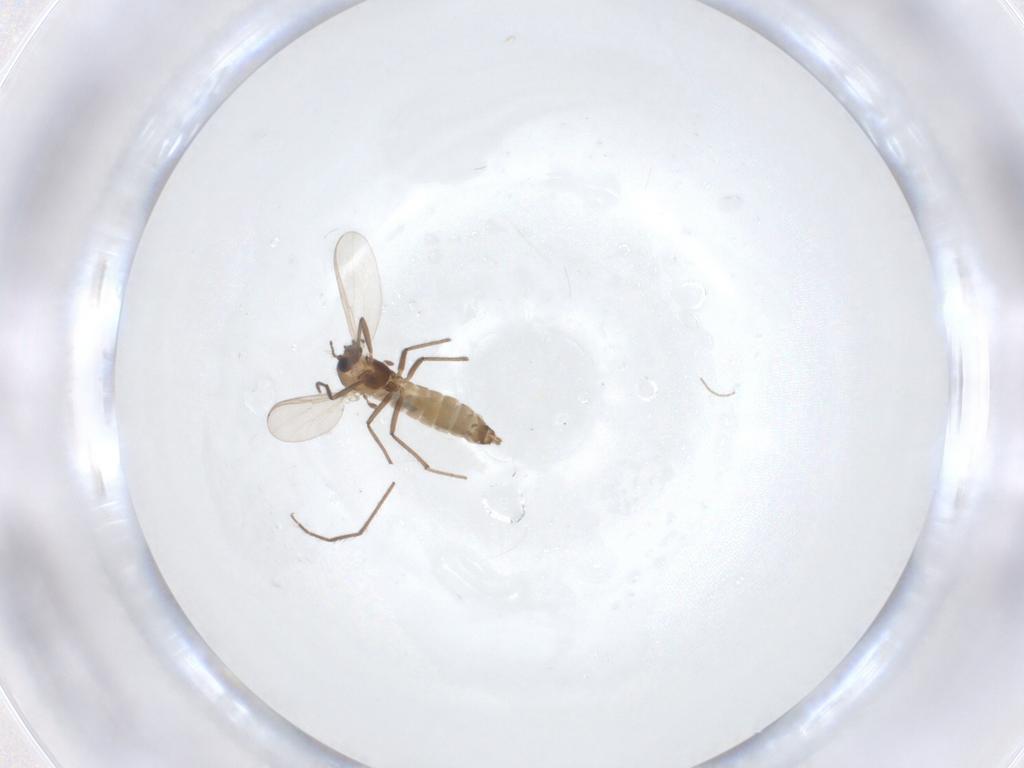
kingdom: Animalia
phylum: Arthropoda
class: Insecta
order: Diptera
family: Chironomidae
